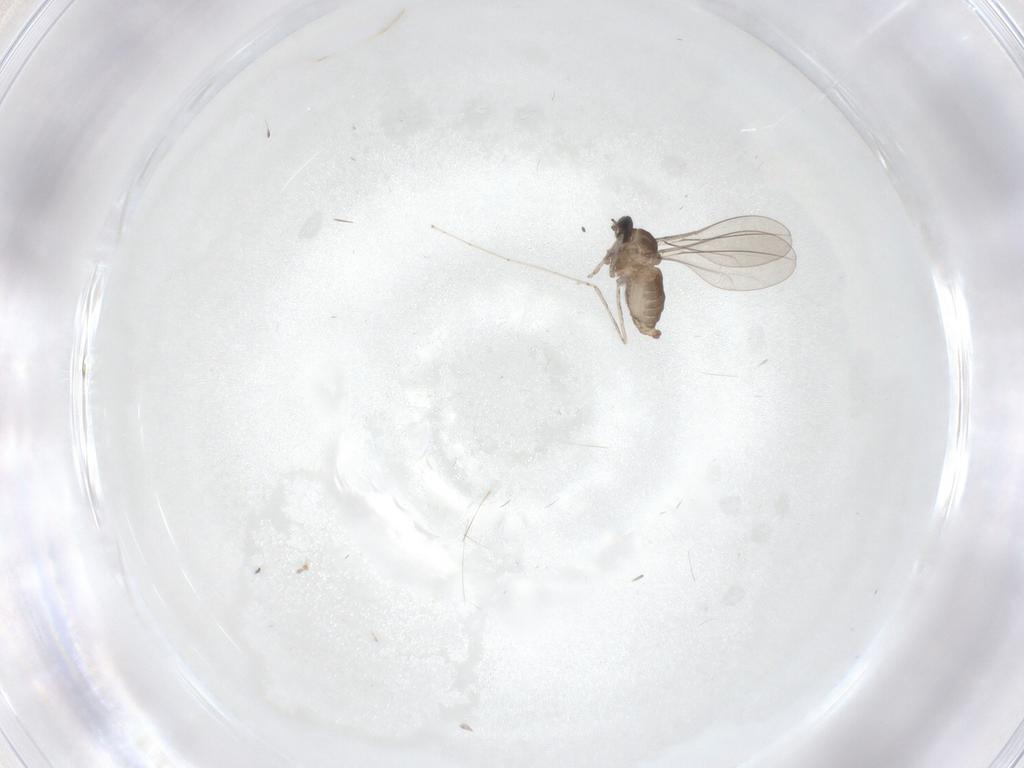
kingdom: Animalia
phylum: Arthropoda
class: Insecta
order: Diptera
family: Cecidomyiidae
